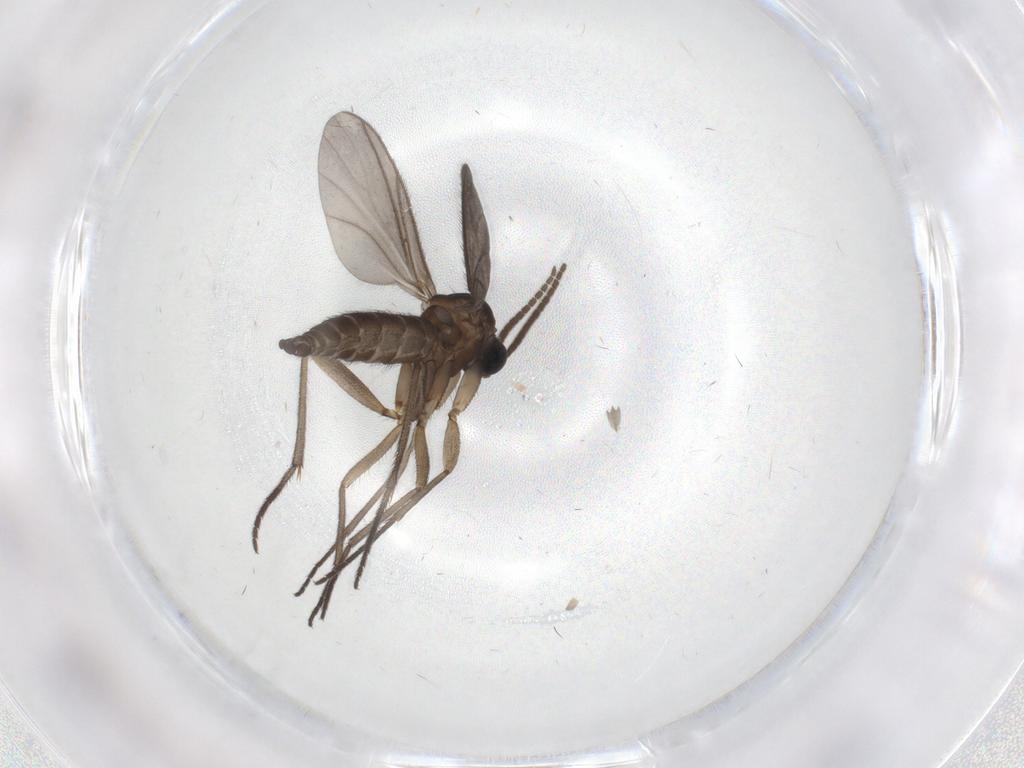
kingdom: Animalia
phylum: Arthropoda
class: Insecta
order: Diptera
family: Sciaridae
